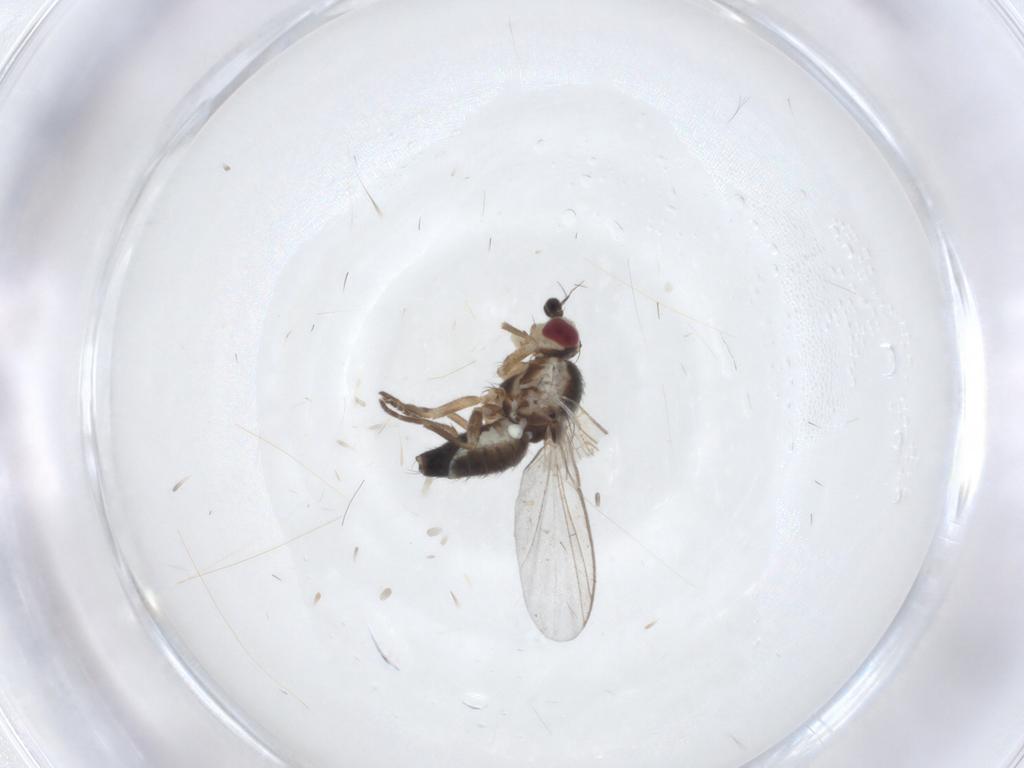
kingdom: Animalia
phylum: Arthropoda
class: Insecta
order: Diptera
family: Agromyzidae
